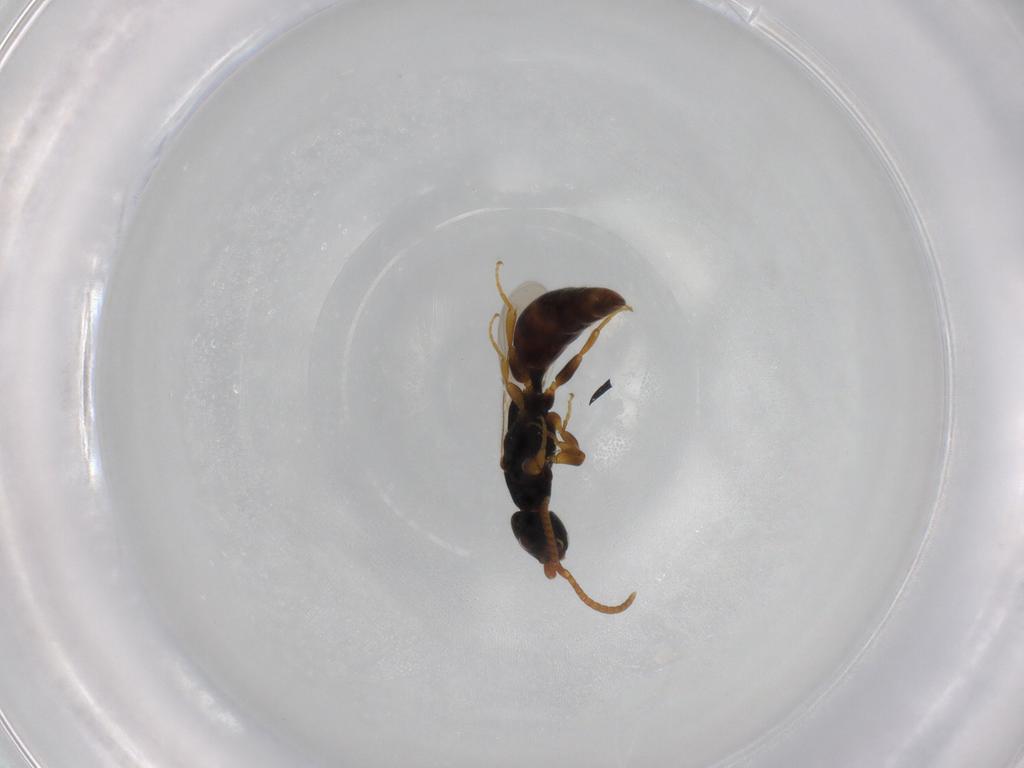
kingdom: Animalia
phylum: Arthropoda
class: Insecta
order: Hymenoptera
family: Bethylidae
